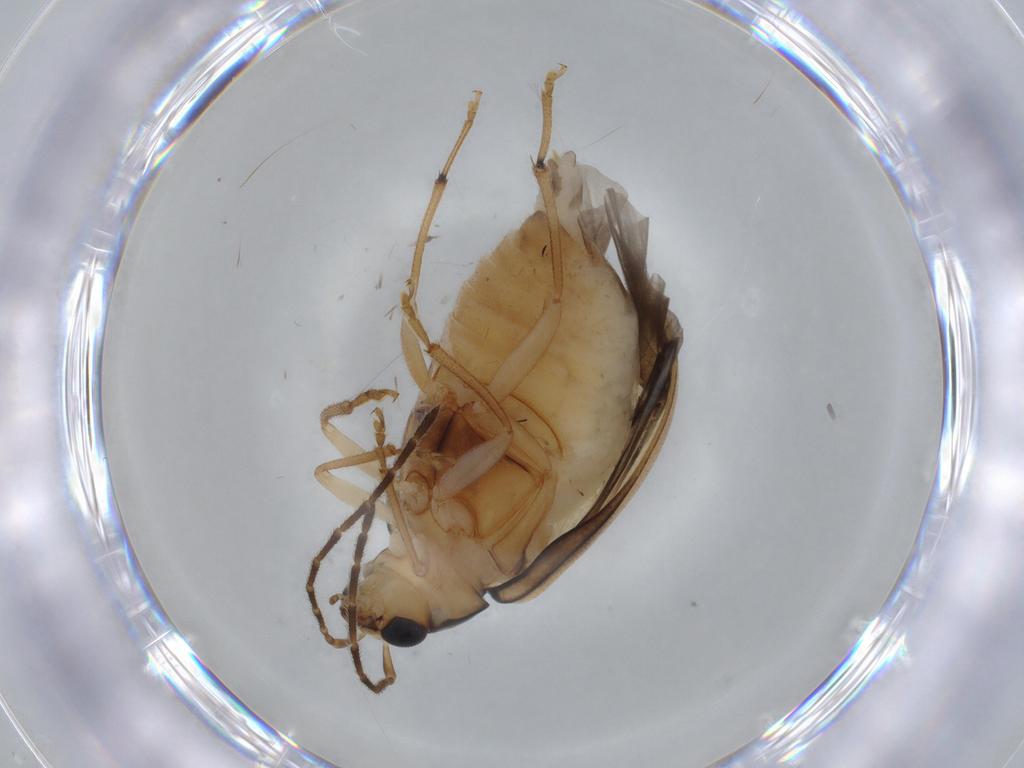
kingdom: Animalia
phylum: Arthropoda
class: Insecta
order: Coleoptera
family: Chrysomelidae
